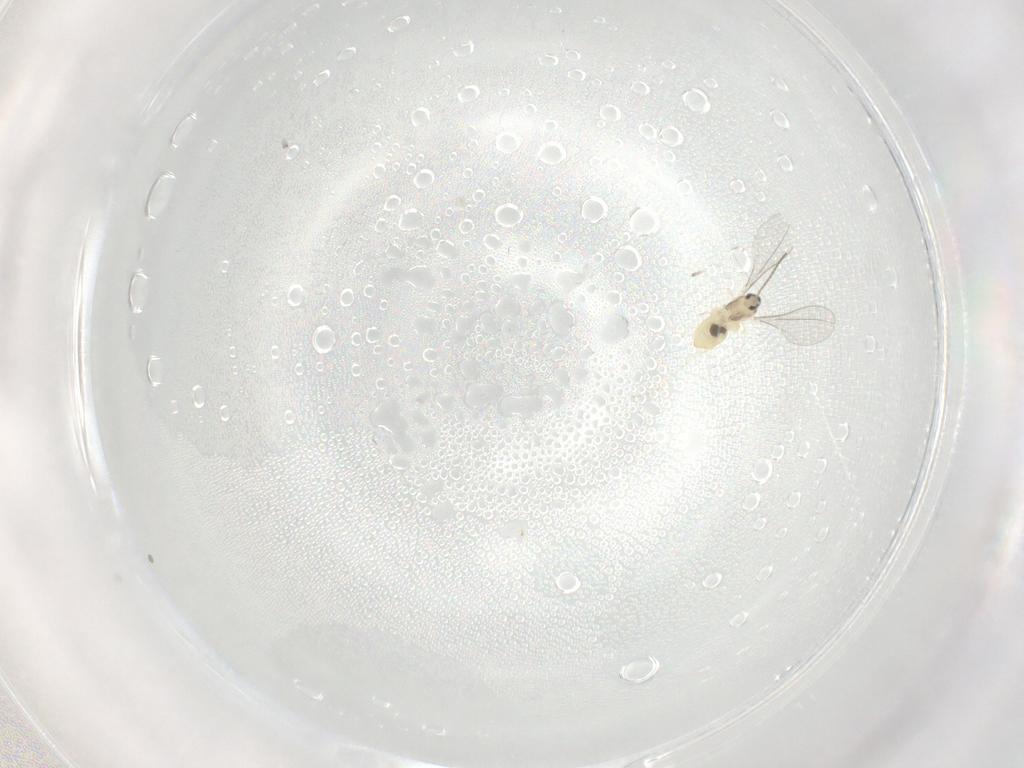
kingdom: Animalia
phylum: Arthropoda
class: Insecta
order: Diptera
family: Cecidomyiidae
